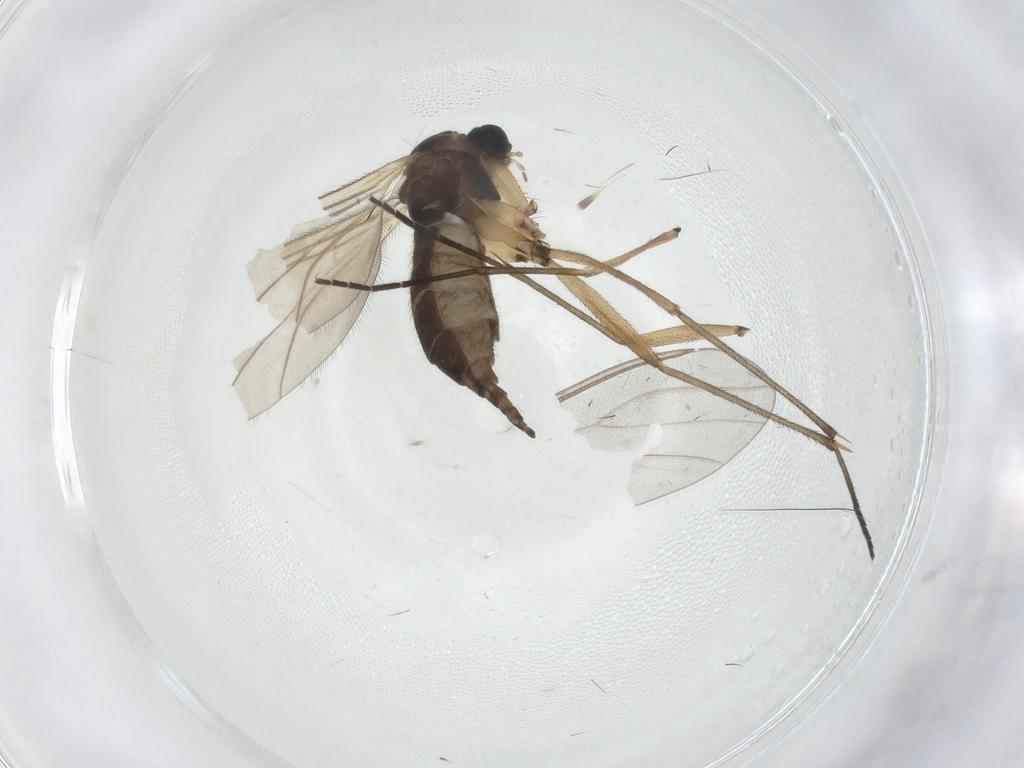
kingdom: Animalia
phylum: Arthropoda
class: Insecta
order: Diptera
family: Sciaridae
